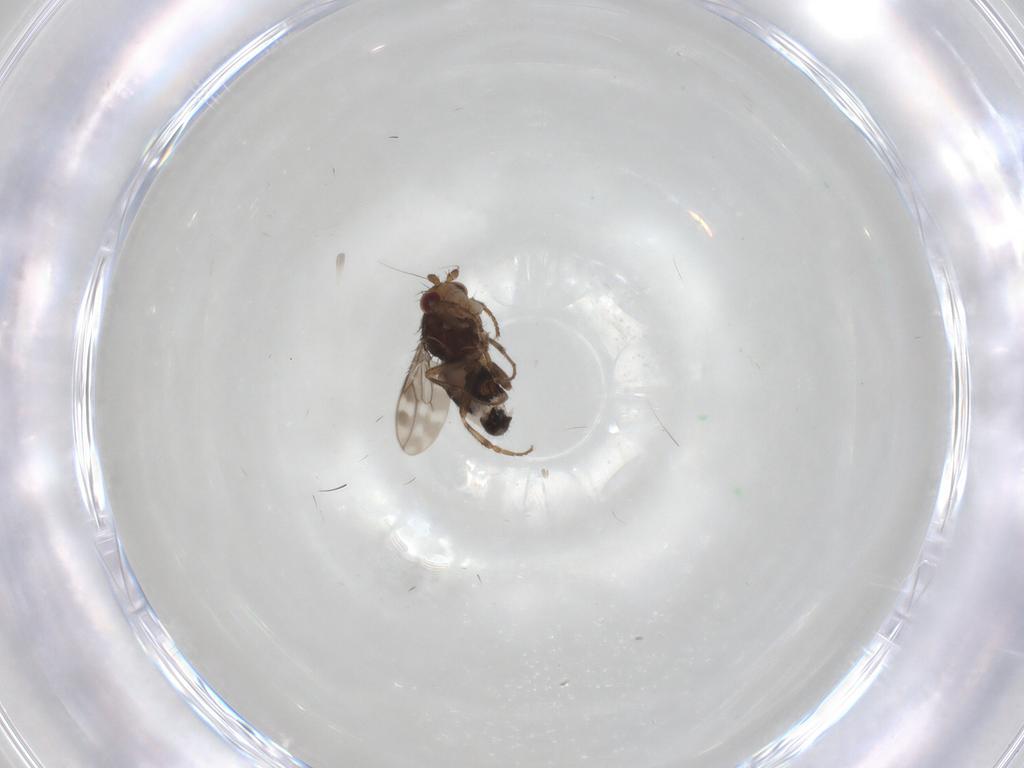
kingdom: Animalia
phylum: Arthropoda
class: Insecta
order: Diptera
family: Sphaeroceridae
